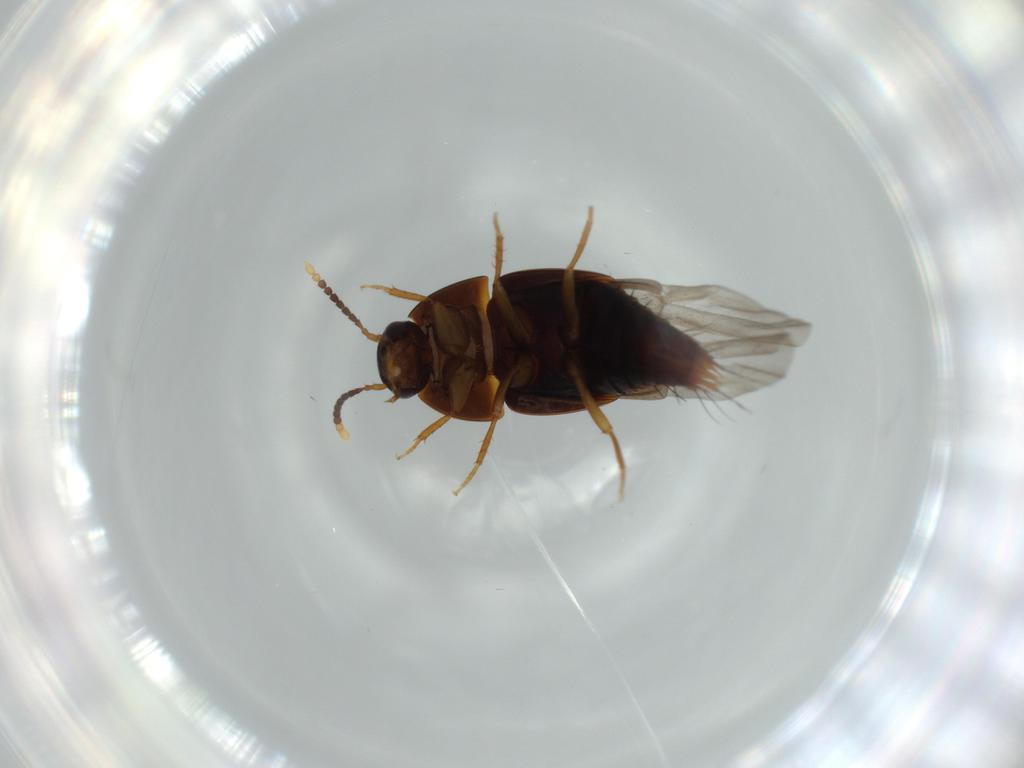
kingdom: Animalia
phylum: Arthropoda
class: Insecta
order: Coleoptera
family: Staphylinidae
